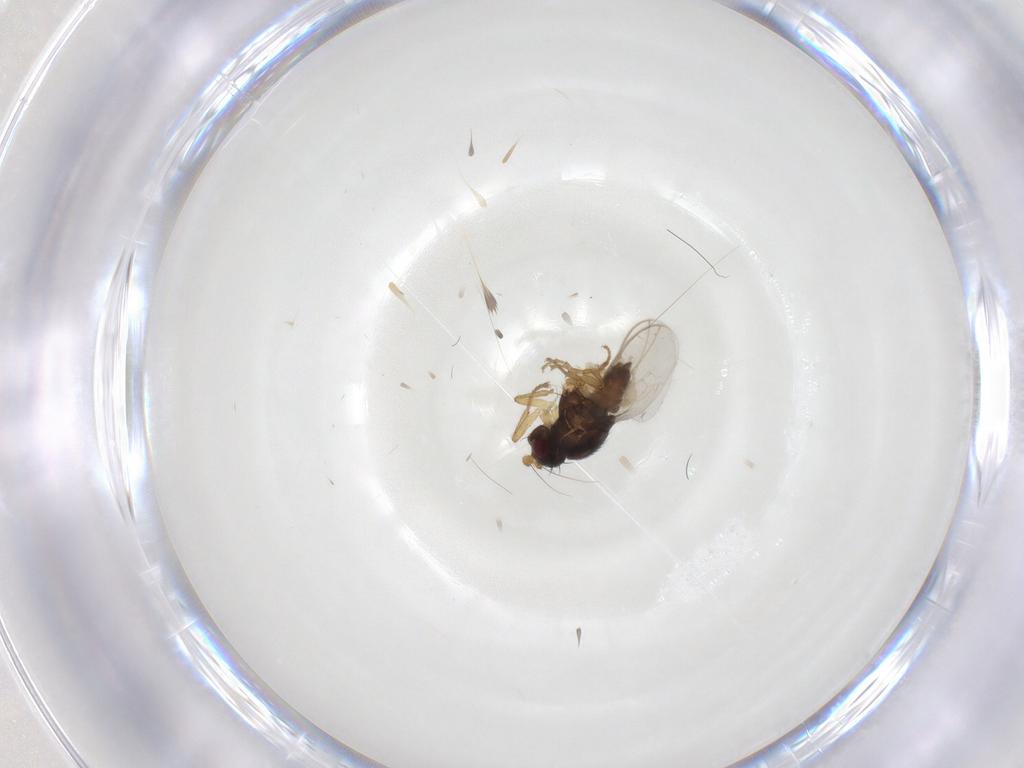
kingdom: Animalia
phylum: Arthropoda
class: Insecta
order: Diptera
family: Sphaeroceridae
